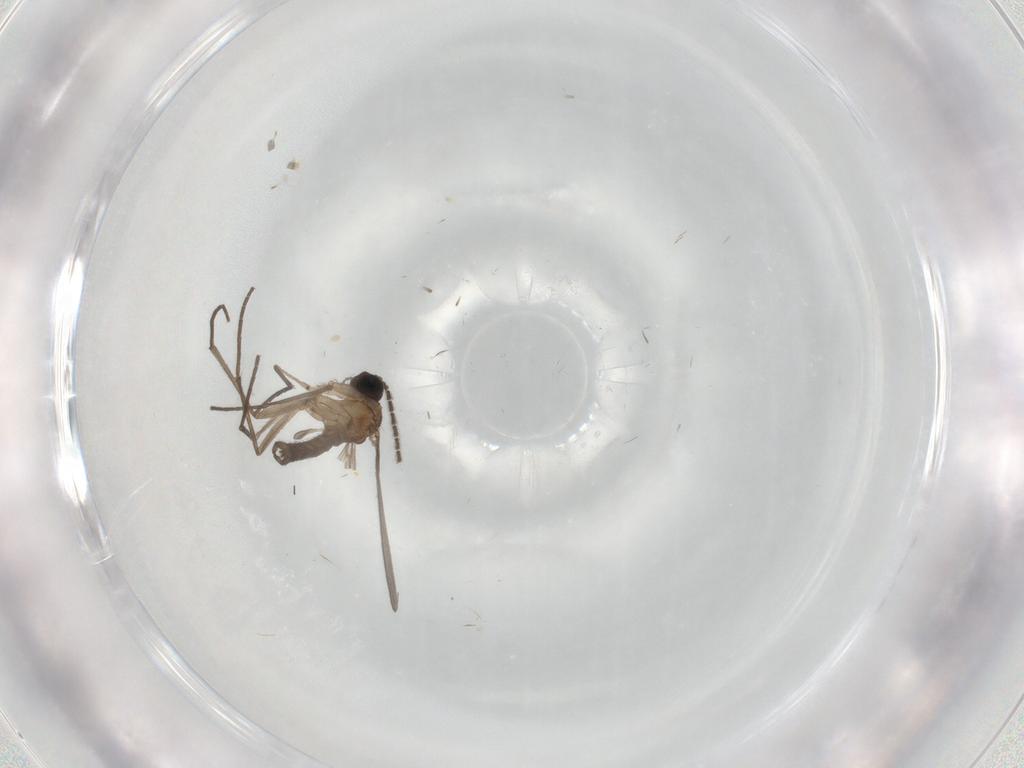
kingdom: Animalia
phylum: Arthropoda
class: Insecta
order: Diptera
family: Sciaridae
